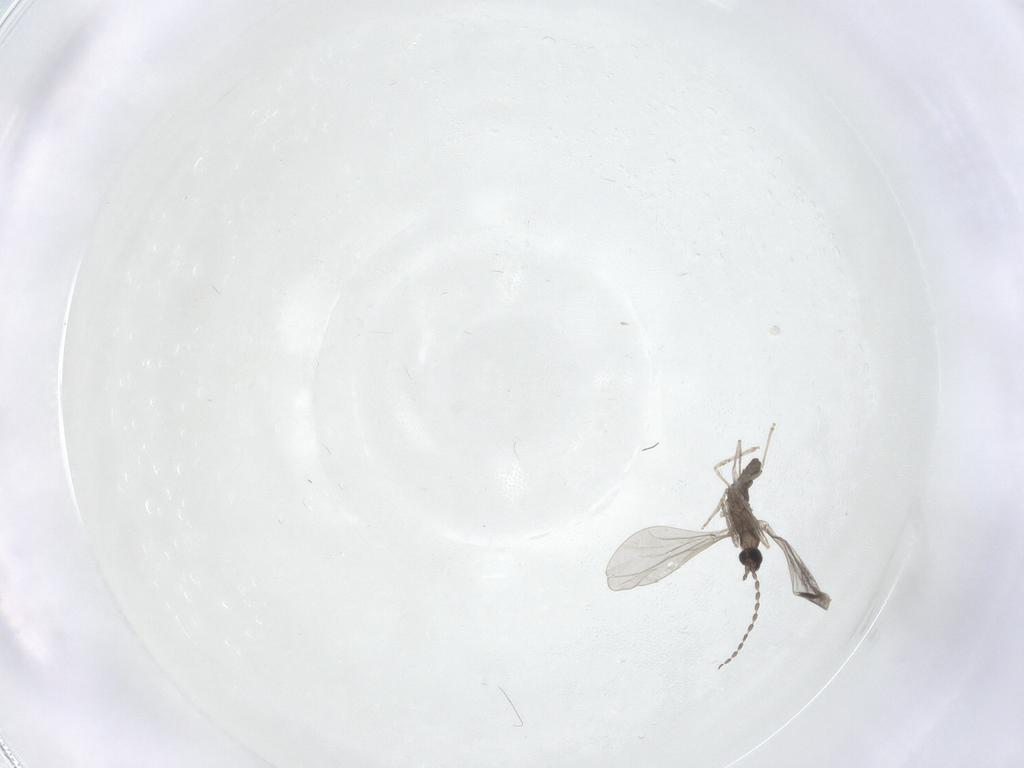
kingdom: Animalia
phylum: Arthropoda
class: Insecta
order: Diptera
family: Cecidomyiidae
